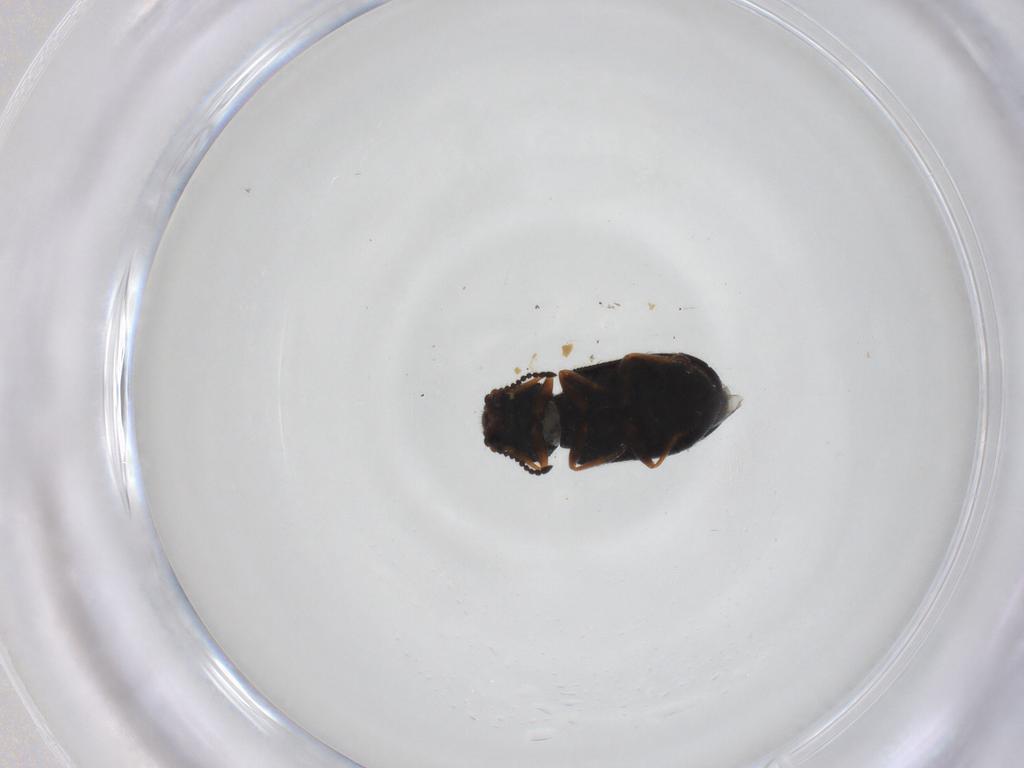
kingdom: Animalia
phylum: Arthropoda
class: Insecta
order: Coleoptera
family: Melyridae
